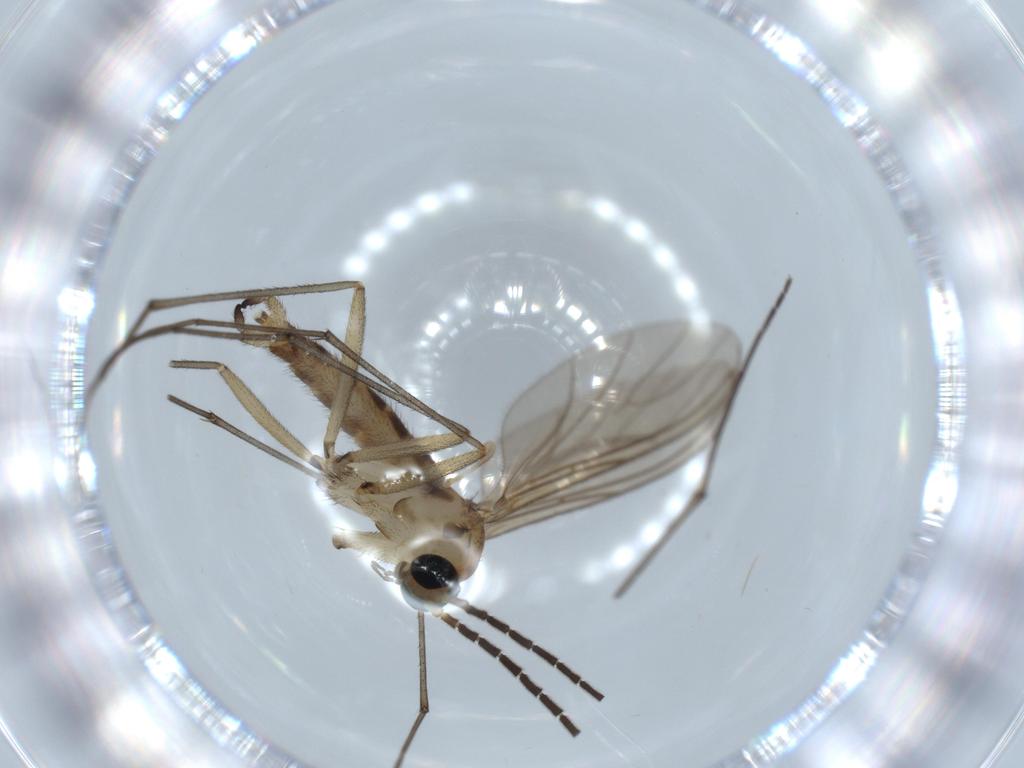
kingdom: Animalia
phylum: Arthropoda
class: Insecta
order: Diptera
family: Sciaridae
